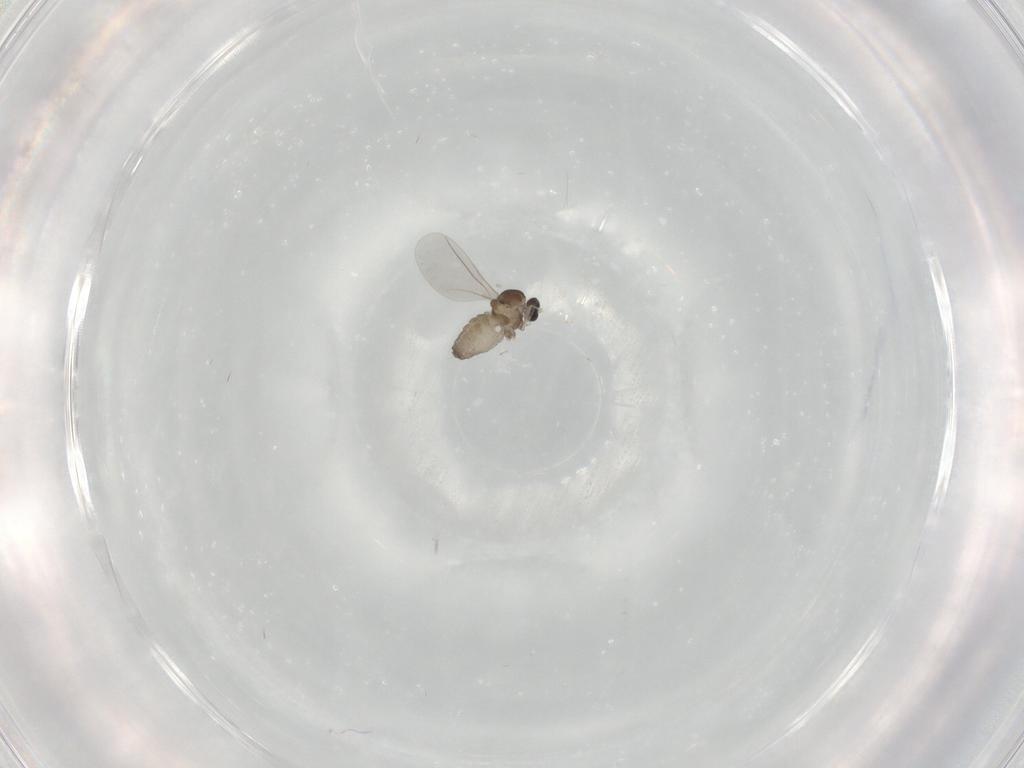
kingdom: Animalia
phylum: Arthropoda
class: Insecta
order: Diptera
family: Cecidomyiidae
